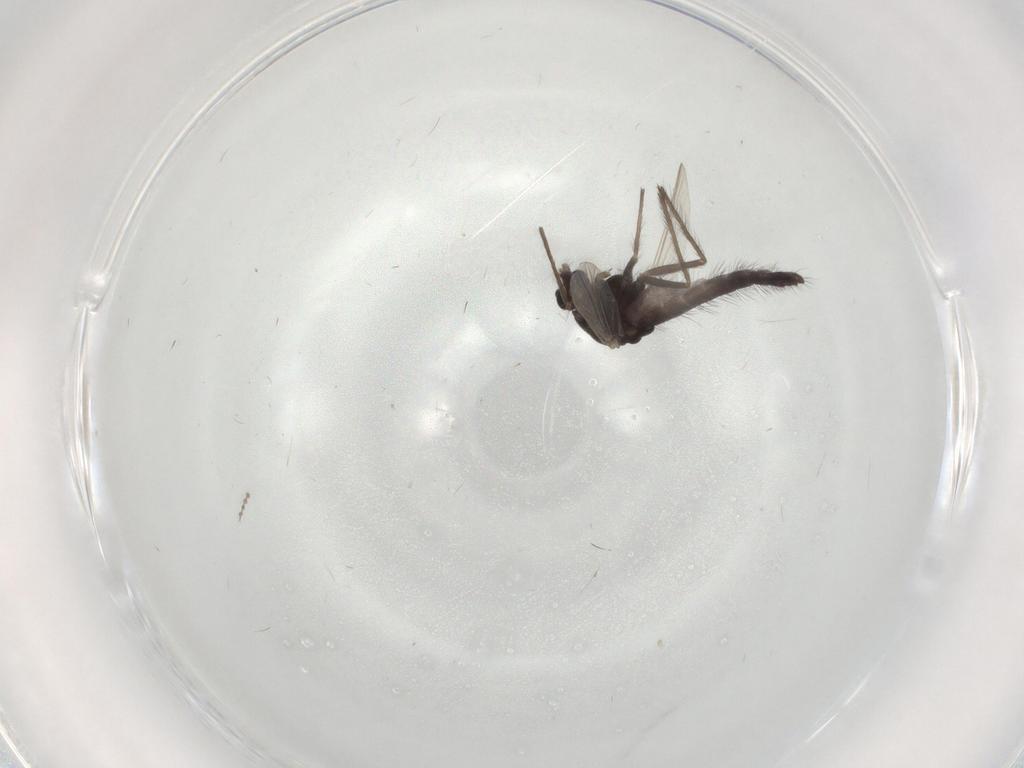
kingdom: Animalia
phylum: Arthropoda
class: Insecta
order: Diptera
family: Chironomidae
